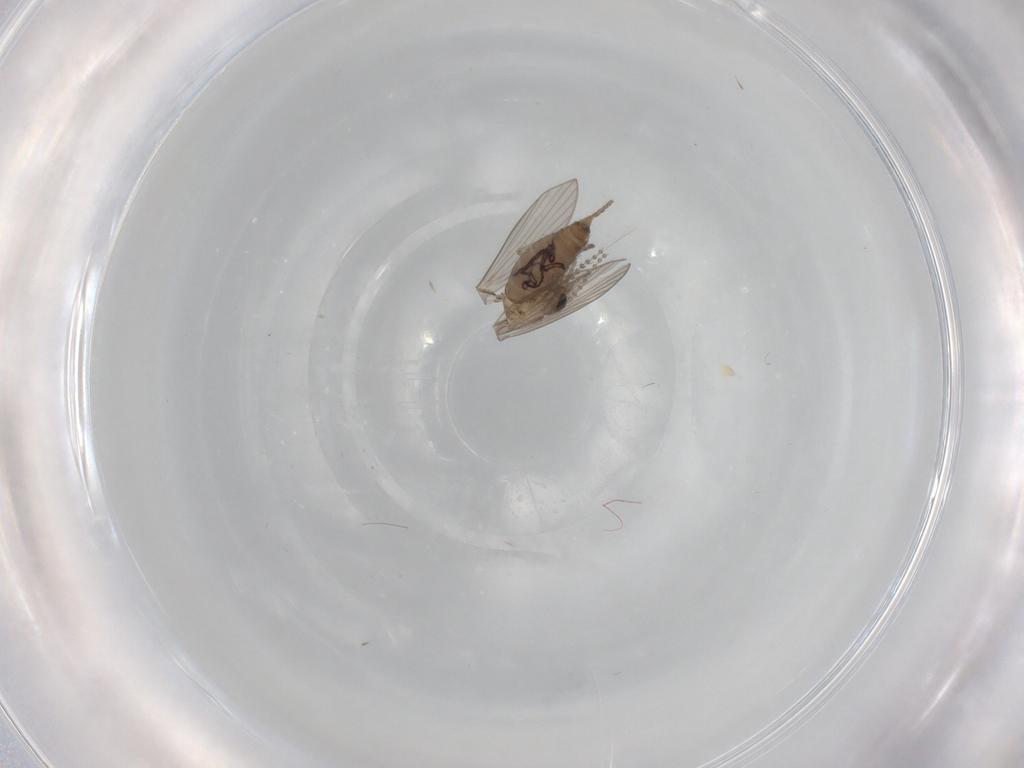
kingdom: Animalia
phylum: Arthropoda
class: Insecta
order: Diptera
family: Psychodidae
